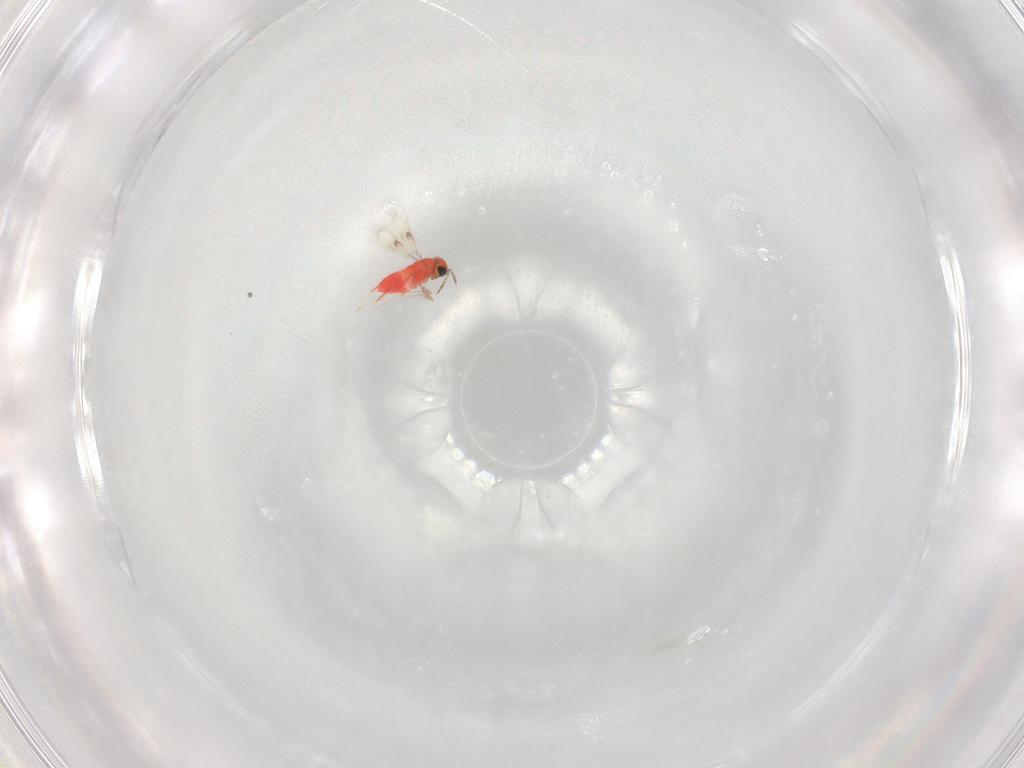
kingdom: Animalia
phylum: Arthropoda
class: Insecta
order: Hymenoptera
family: Trichogrammatidae
